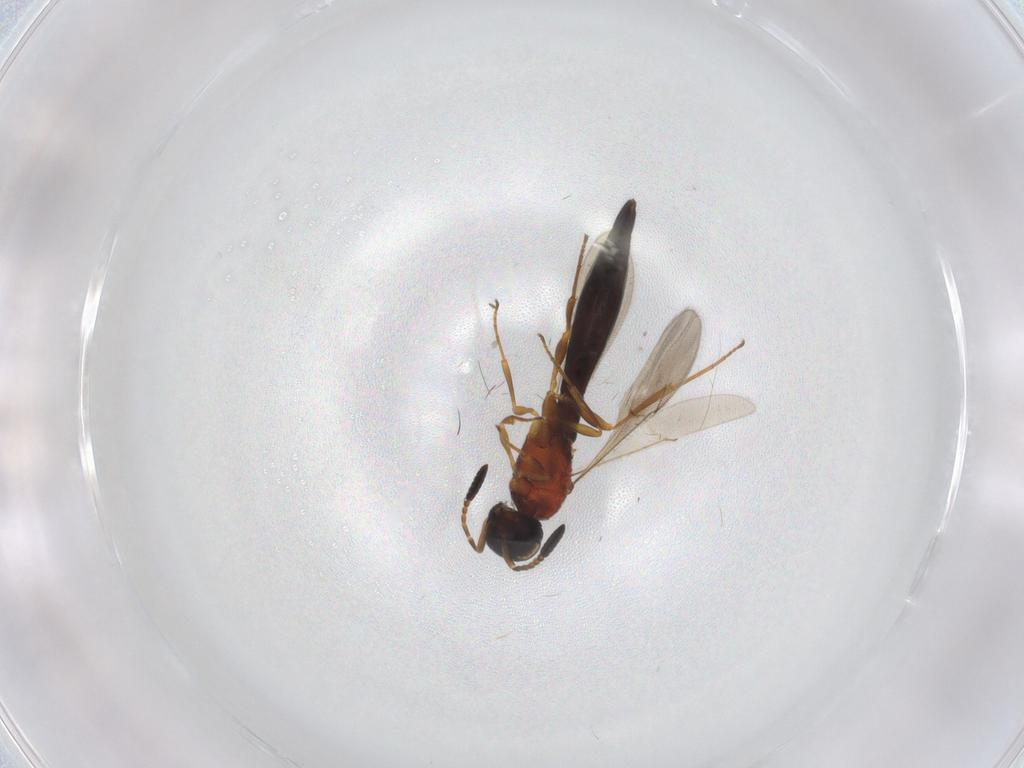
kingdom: Animalia
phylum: Arthropoda
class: Insecta
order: Hymenoptera
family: Scelionidae
